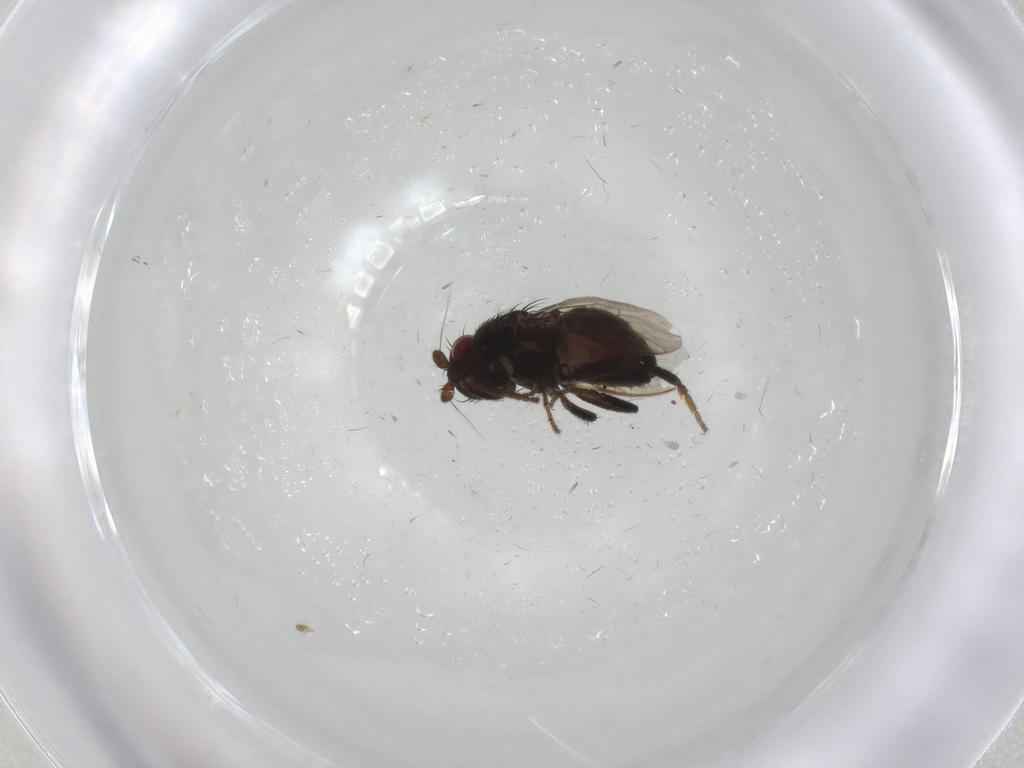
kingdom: Animalia
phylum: Arthropoda
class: Insecta
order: Diptera
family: Sphaeroceridae
